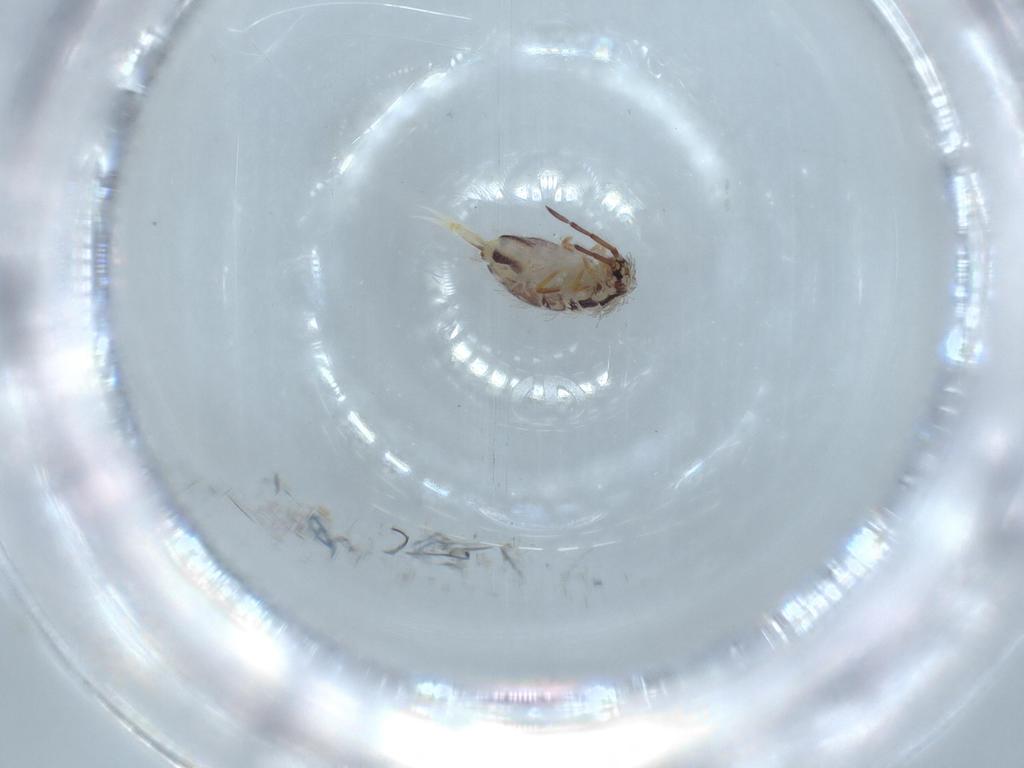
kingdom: Animalia
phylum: Arthropoda
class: Collembola
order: Entomobryomorpha
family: Entomobryidae
